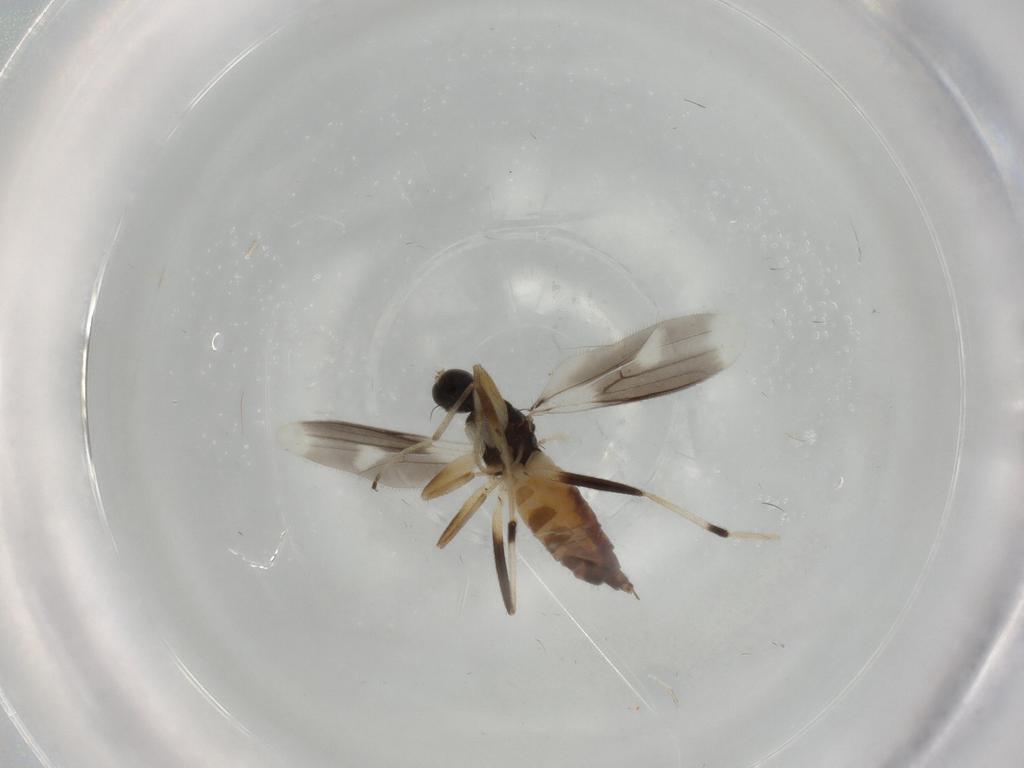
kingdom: Animalia
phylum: Arthropoda
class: Insecta
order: Diptera
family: Hybotidae
